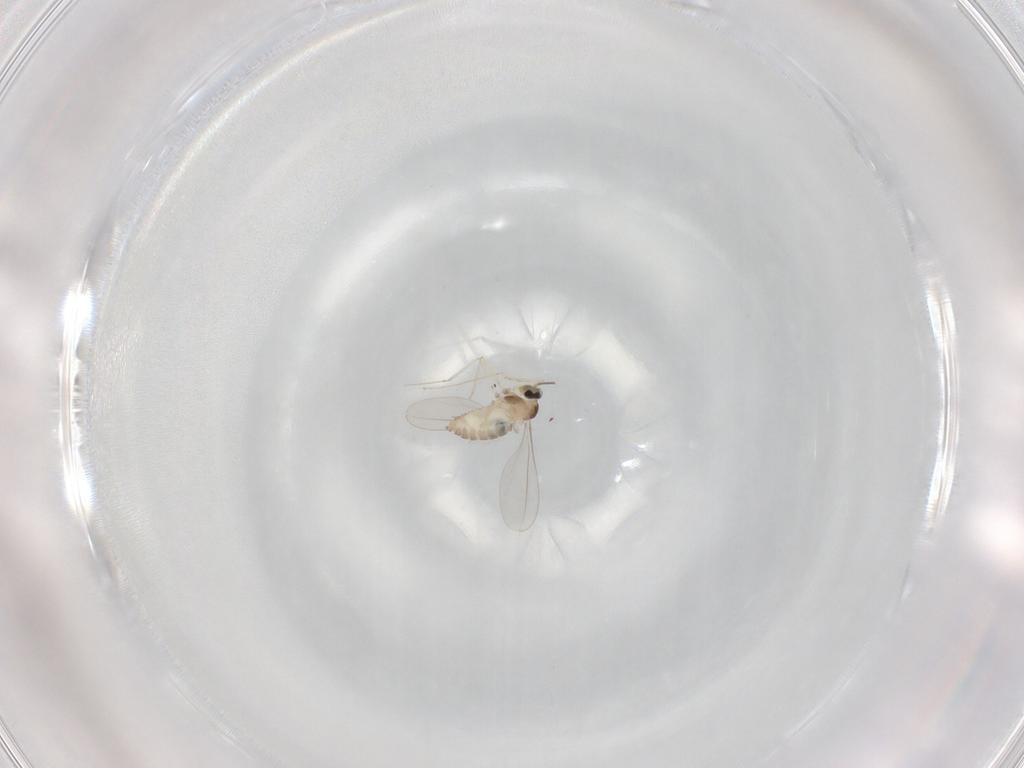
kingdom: Animalia
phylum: Arthropoda
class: Insecta
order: Diptera
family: Cecidomyiidae
